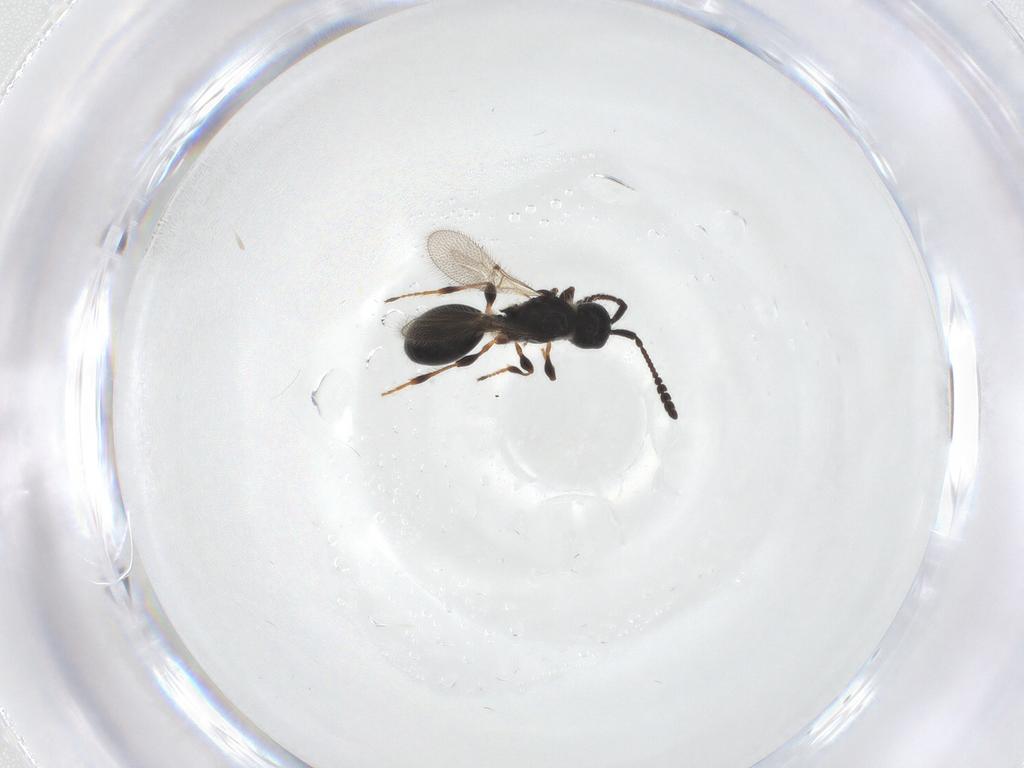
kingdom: Animalia
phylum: Arthropoda
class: Insecta
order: Hymenoptera
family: Diapriidae
